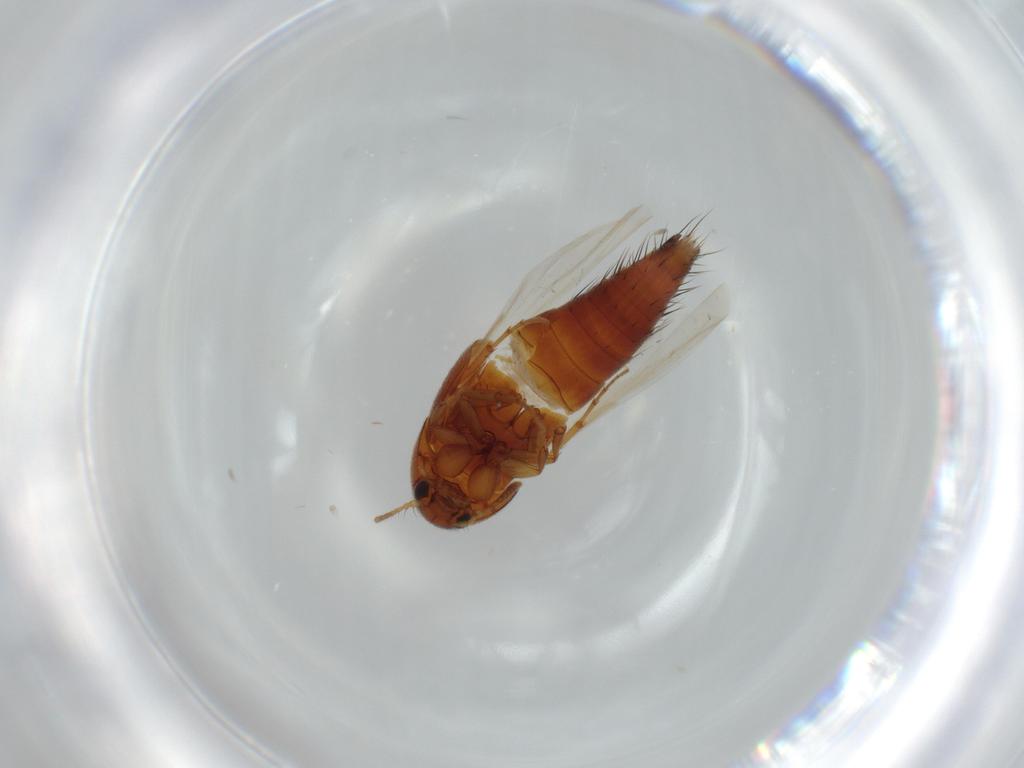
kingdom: Animalia
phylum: Arthropoda
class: Insecta
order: Coleoptera
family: Staphylinidae
